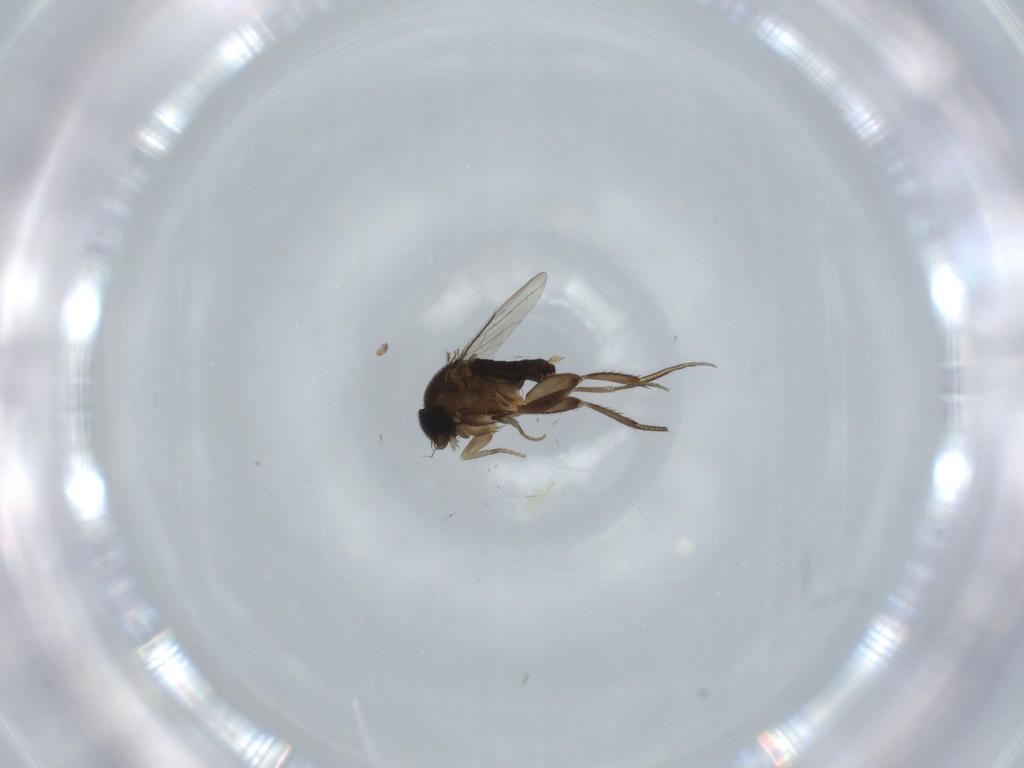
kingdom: Animalia
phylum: Arthropoda
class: Insecta
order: Diptera
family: Phoridae
